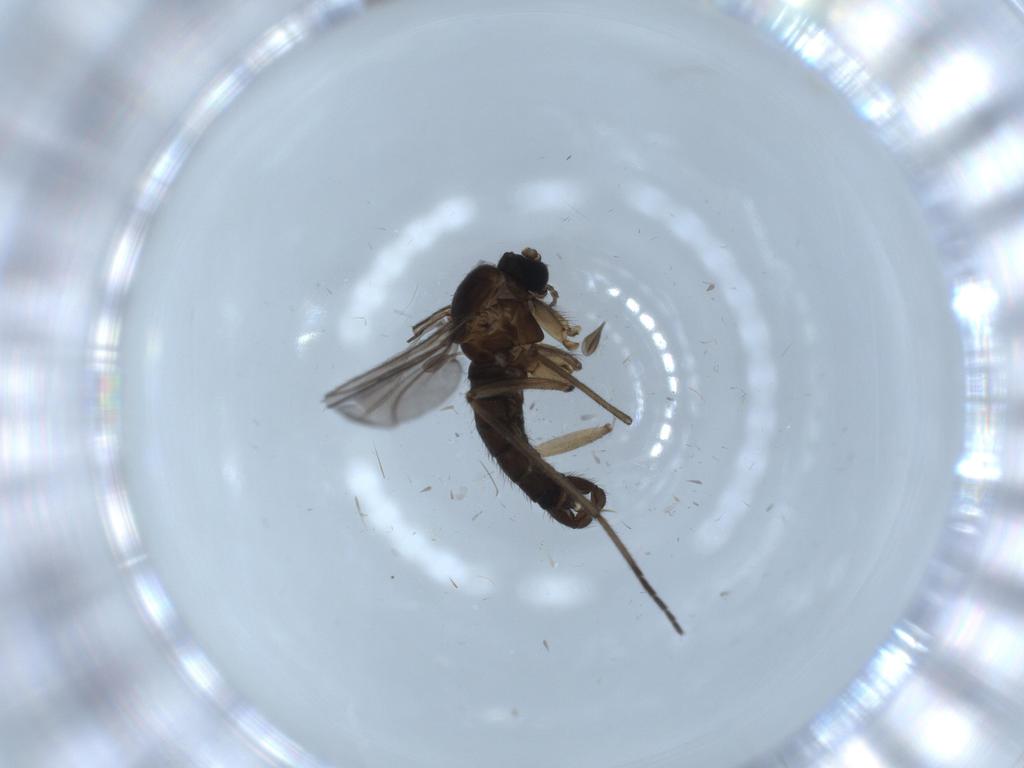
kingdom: Animalia
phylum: Arthropoda
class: Insecta
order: Diptera
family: Sciaridae
